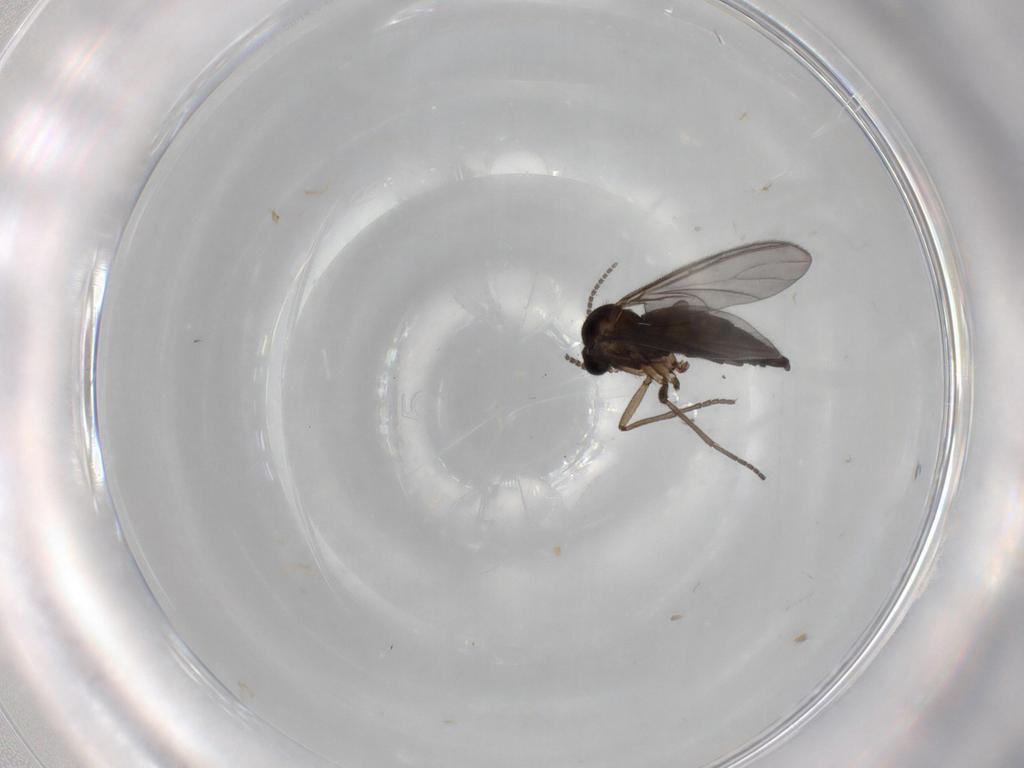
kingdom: Animalia
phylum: Arthropoda
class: Insecta
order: Diptera
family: Sciaridae
